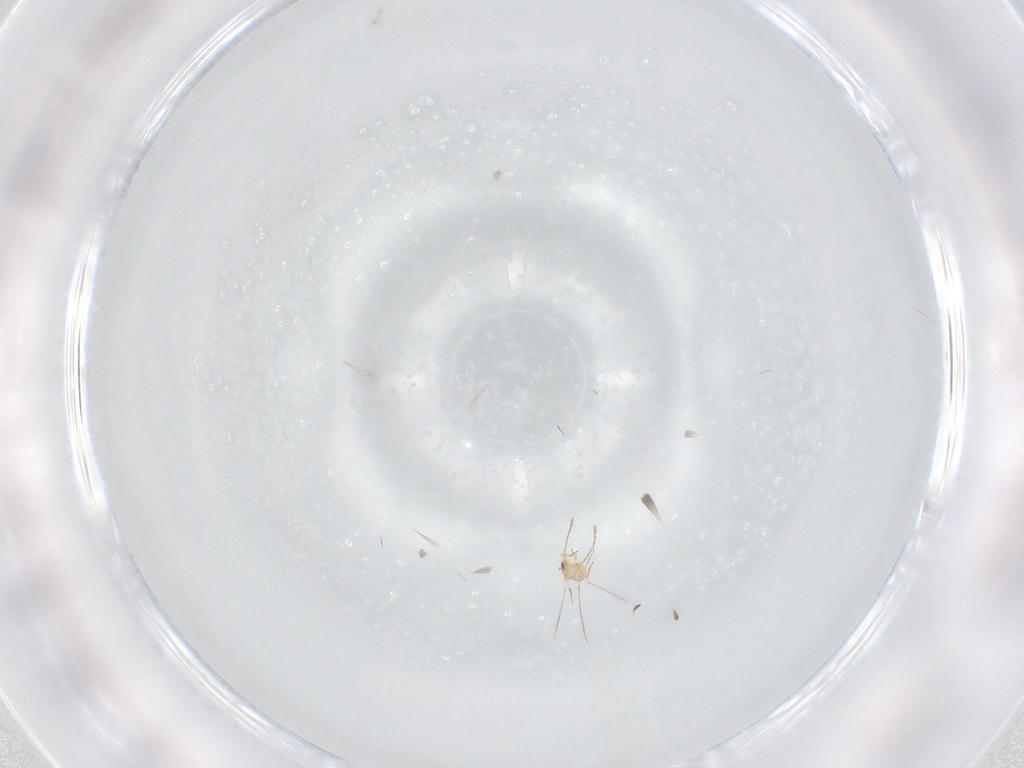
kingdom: Animalia
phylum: Arthropoda
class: Insecta
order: Hymenoptera
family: Mymaridae
